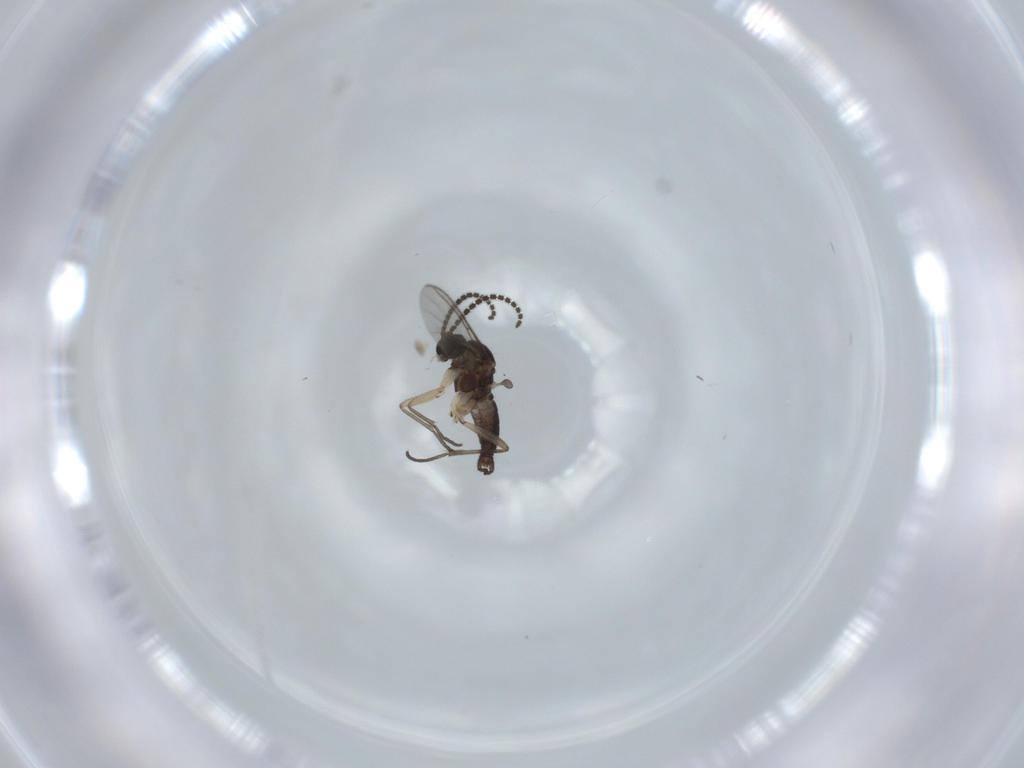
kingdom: Animalia
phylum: Arthropoda
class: Insecta
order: Diptera
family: Sciaridae
